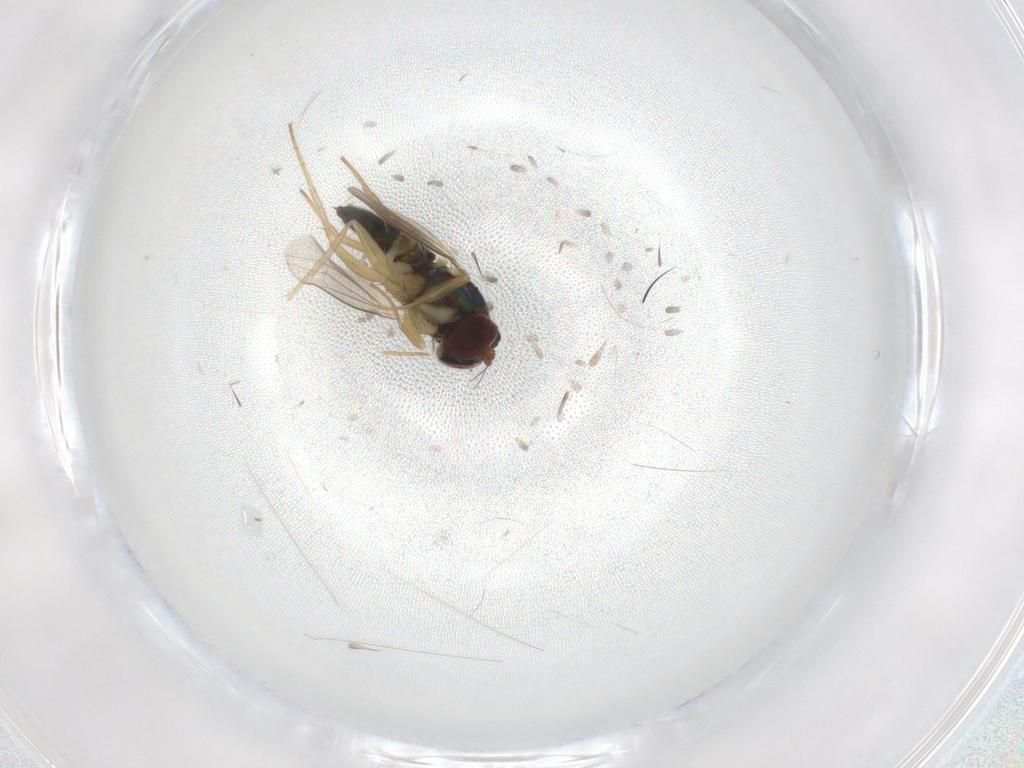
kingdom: Animalia
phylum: Arthropoda
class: Insecta
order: Diptera
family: Dolichopodidae
